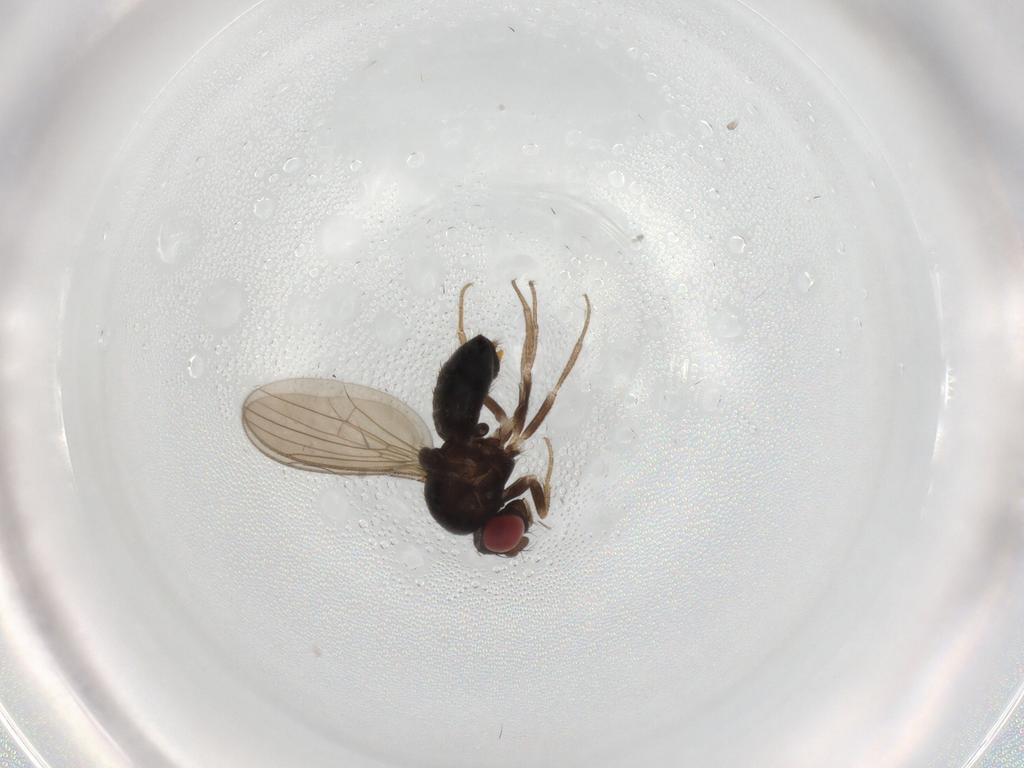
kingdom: Animalia
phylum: Arthropoda
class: Insecta
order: Diptera
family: Drosophilidae
